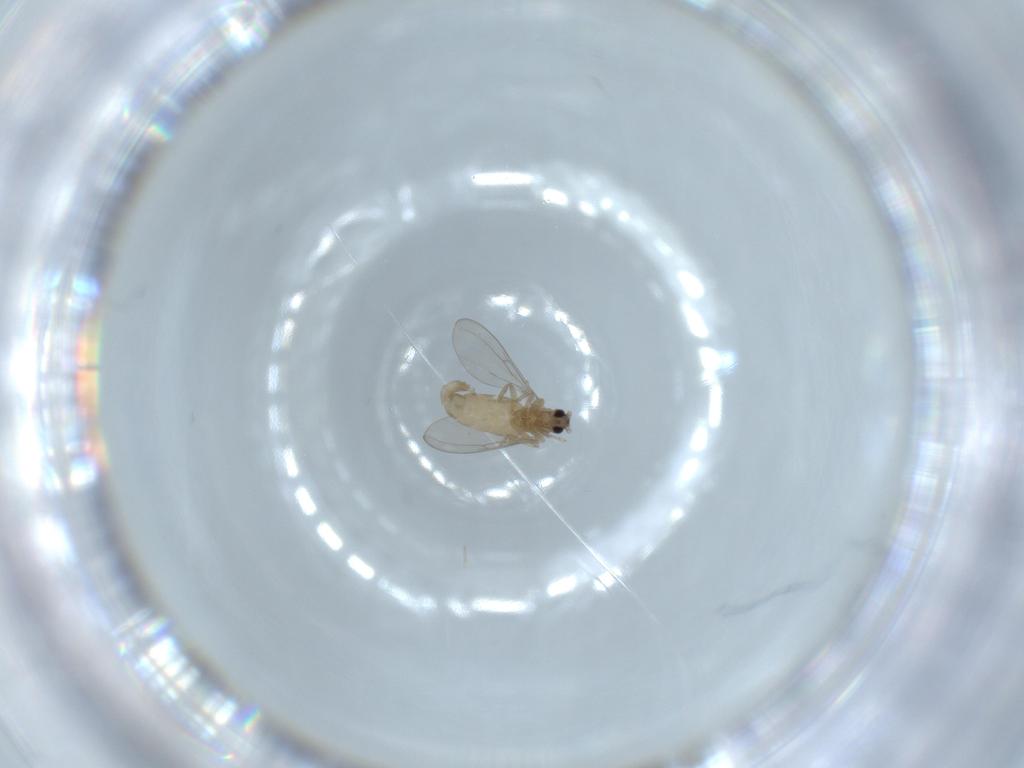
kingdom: Animalia
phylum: Arthropoda
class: Insecta
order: Diptera
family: Cecidomyiidae
